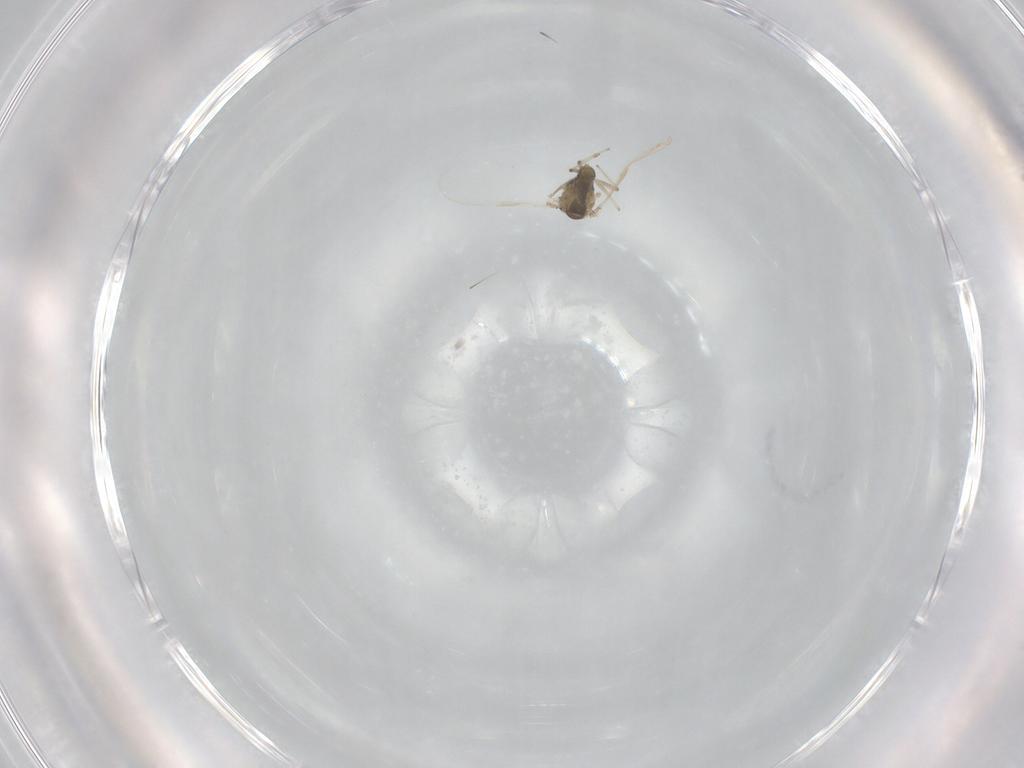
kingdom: Animalia
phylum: Arthropoda
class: Insecta
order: Diptera
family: Chironomidae
